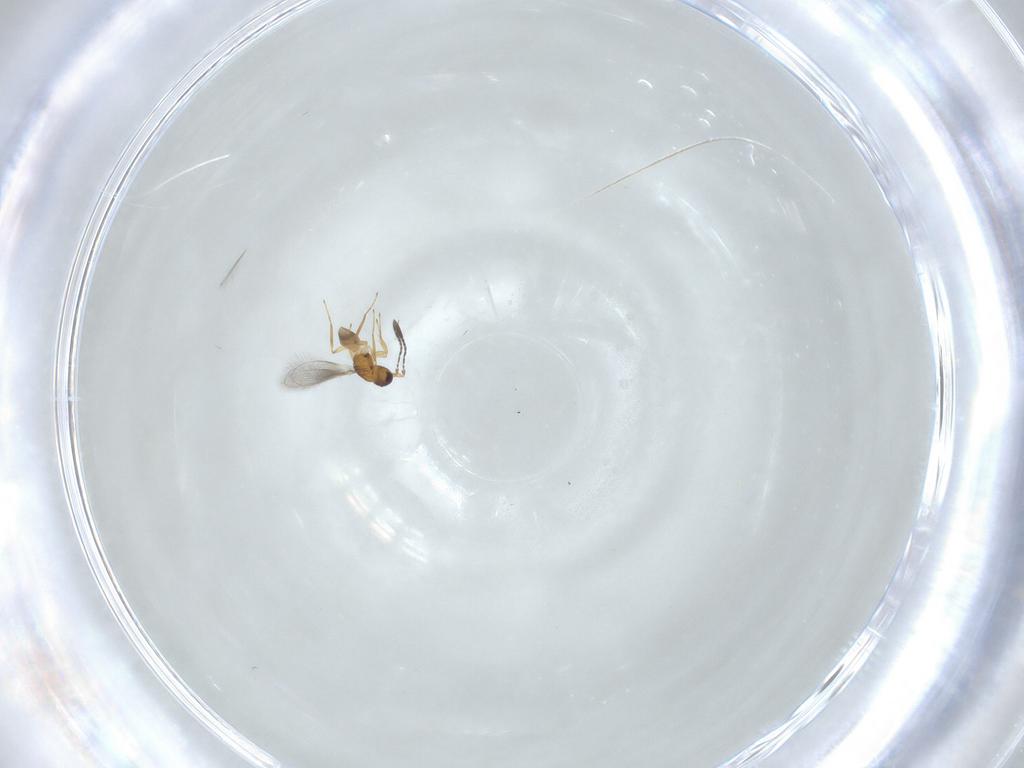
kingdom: Animalia
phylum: Arthropoda
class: Insecta
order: Hymenoptera
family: Mymaridae
